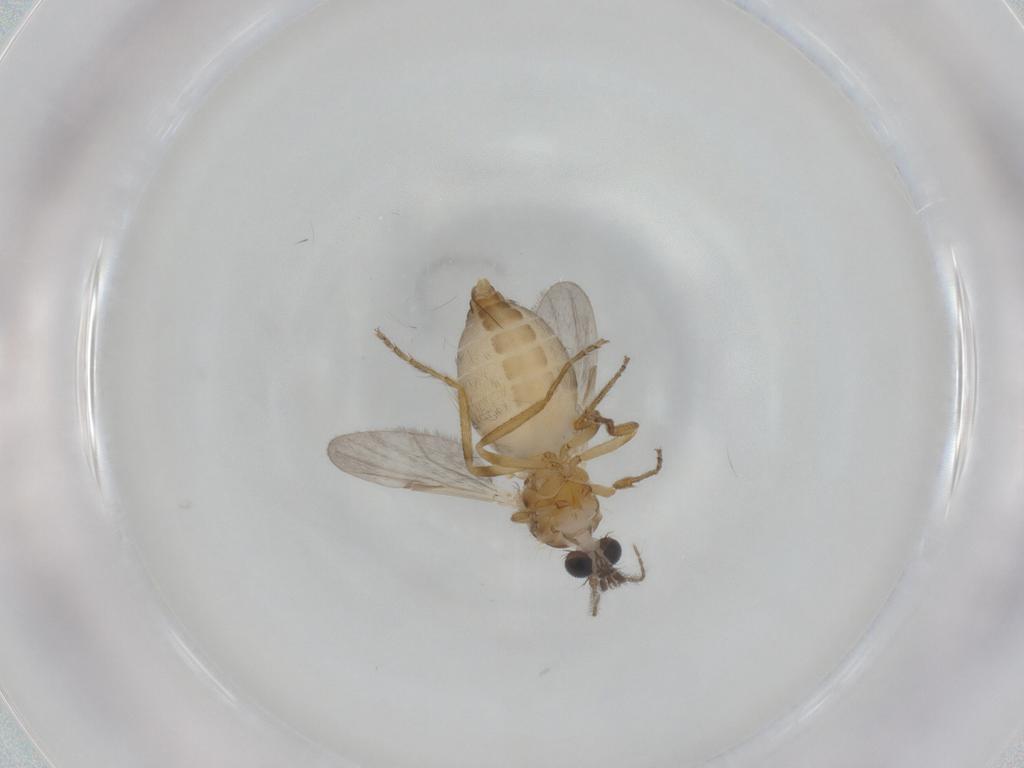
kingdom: Animalia
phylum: Arthropoda
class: Insecta
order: Diptera
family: Ceratopogonidae
